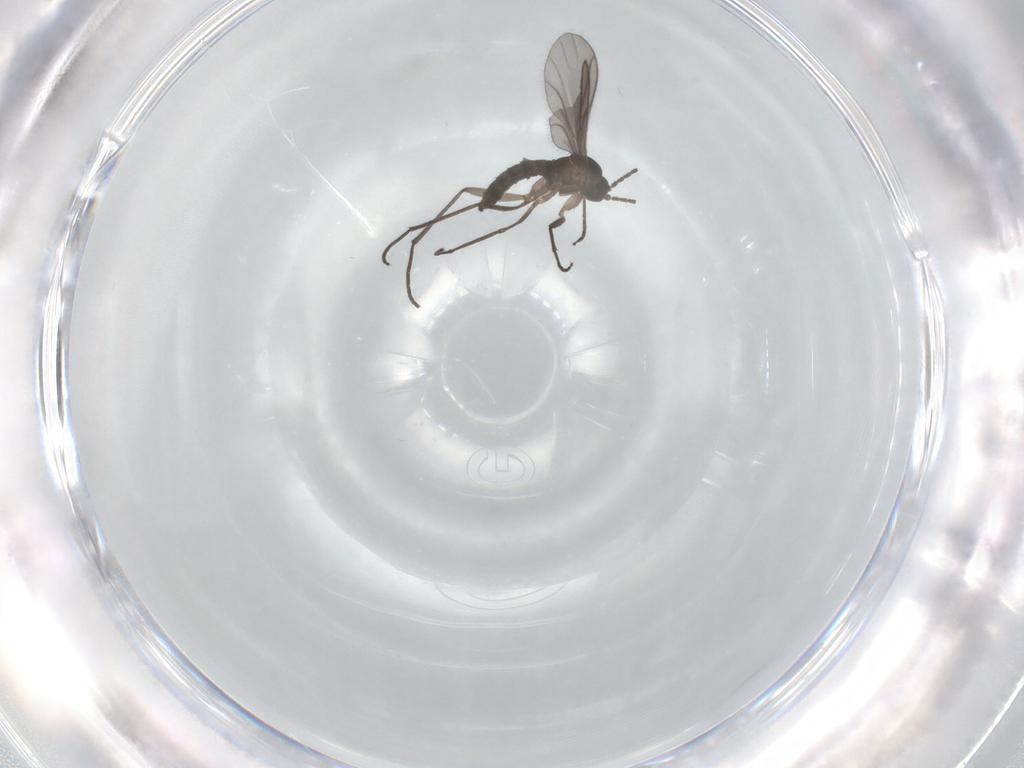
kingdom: Animalia
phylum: Arthropoda
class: Insecta
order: Diptera
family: Sciaridae
